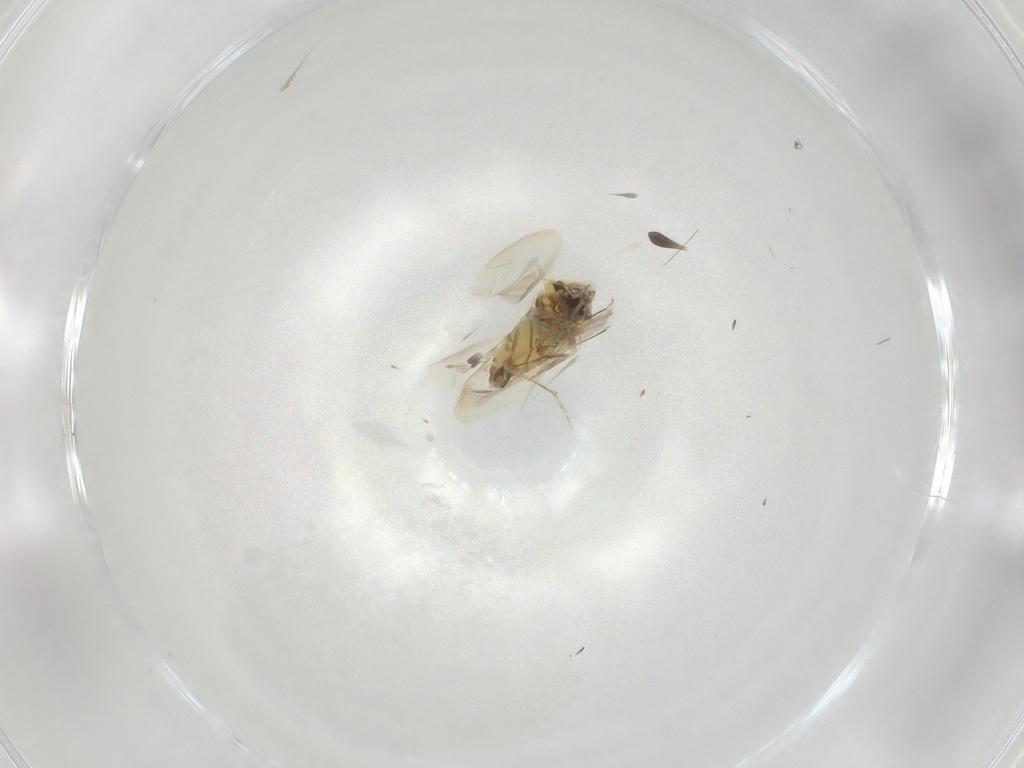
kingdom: Animalia
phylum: Arthropoda
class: Insecta
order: Hemiptera
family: Aleyrodidae
